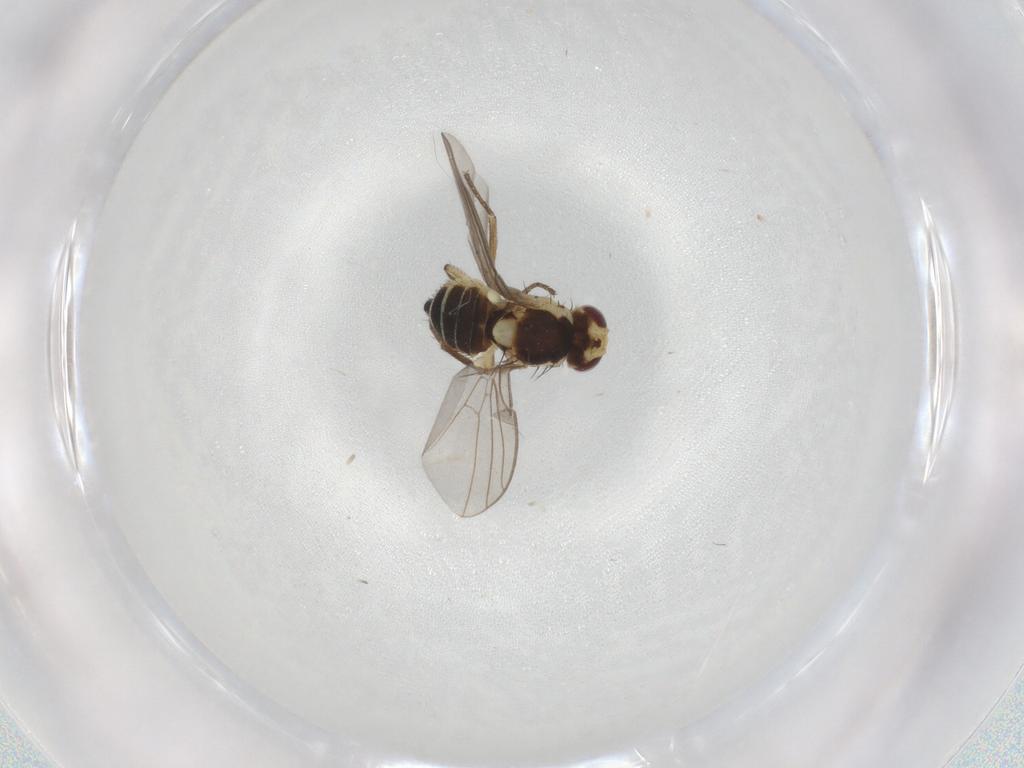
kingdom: Animalia
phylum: Arthropoda
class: Insecta
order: Diptera
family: Agromyzidae
